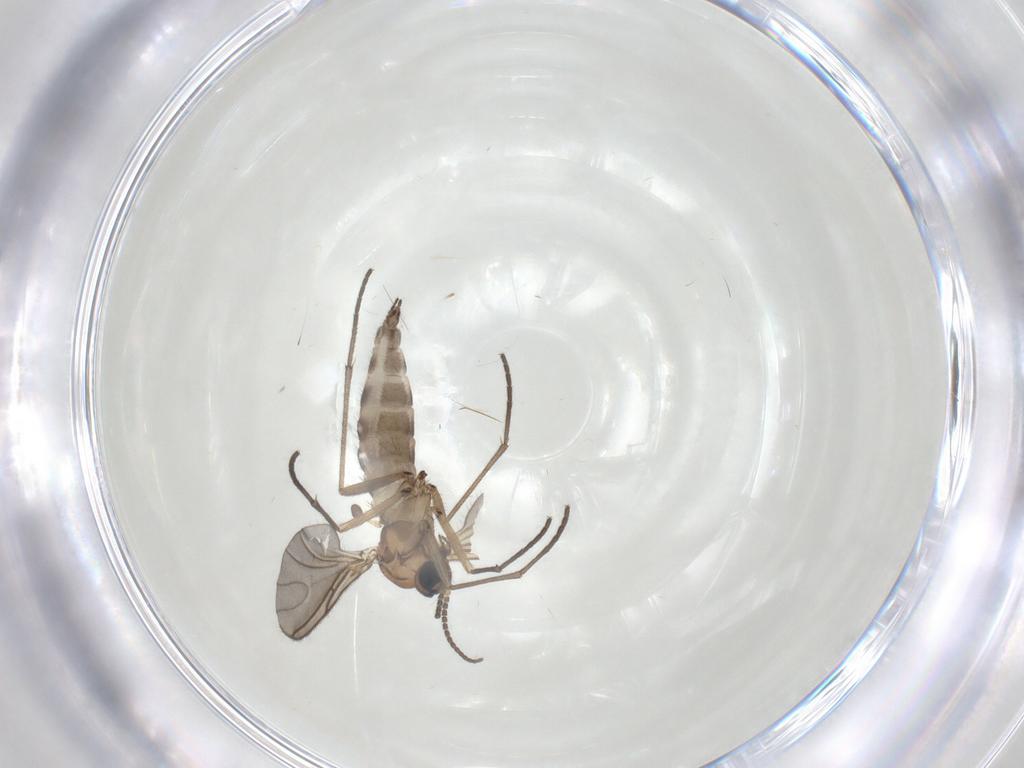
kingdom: Animalia
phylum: Arthropoda
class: Insecta
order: Diptera
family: Sciaridae
